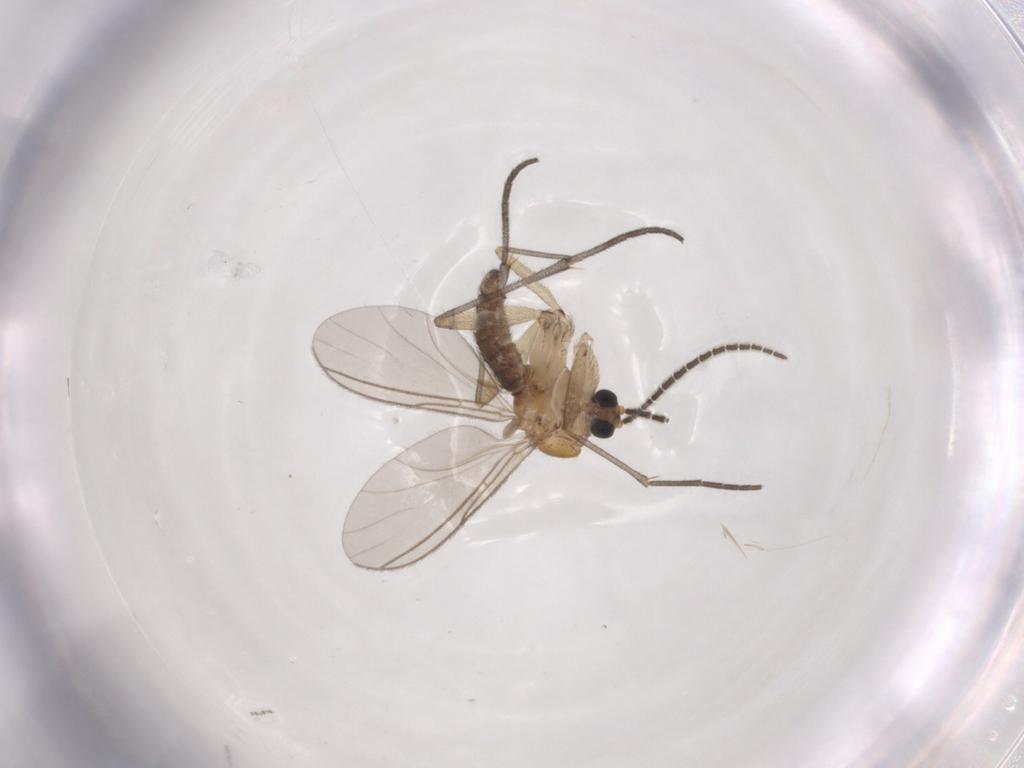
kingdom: Animalia
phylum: Arthropoda
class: Insecta
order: Diptera
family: Sciaridae
